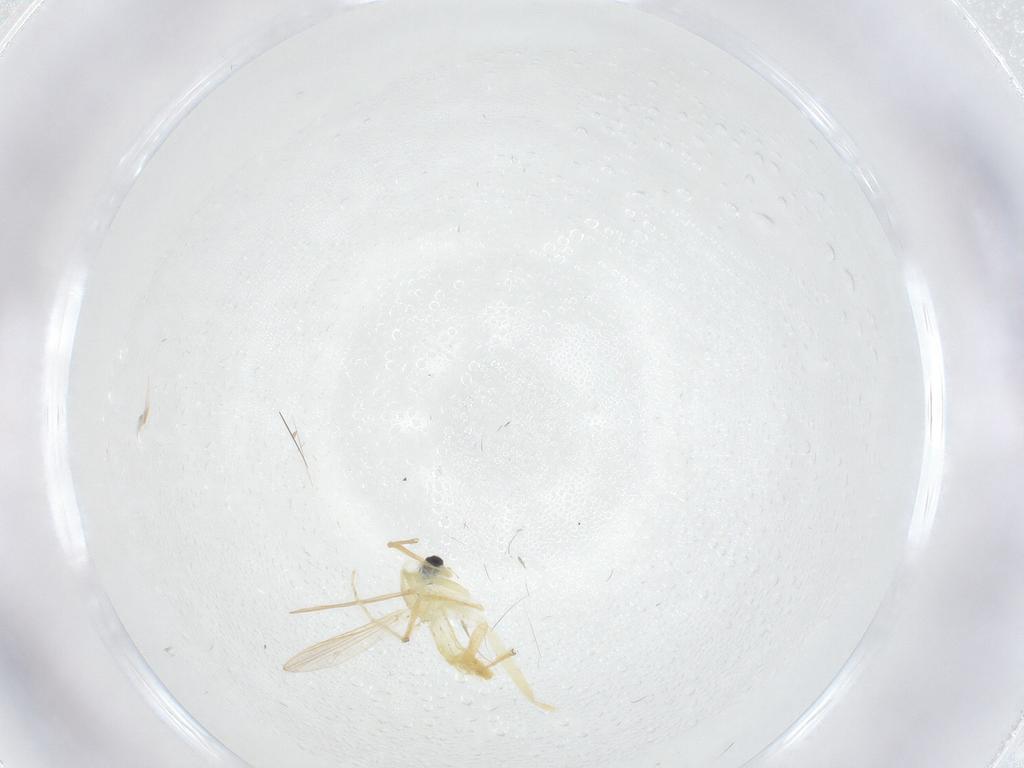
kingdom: Animalia
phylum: Arthropoda
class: Insecta
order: Diptera
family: Chironomidae
